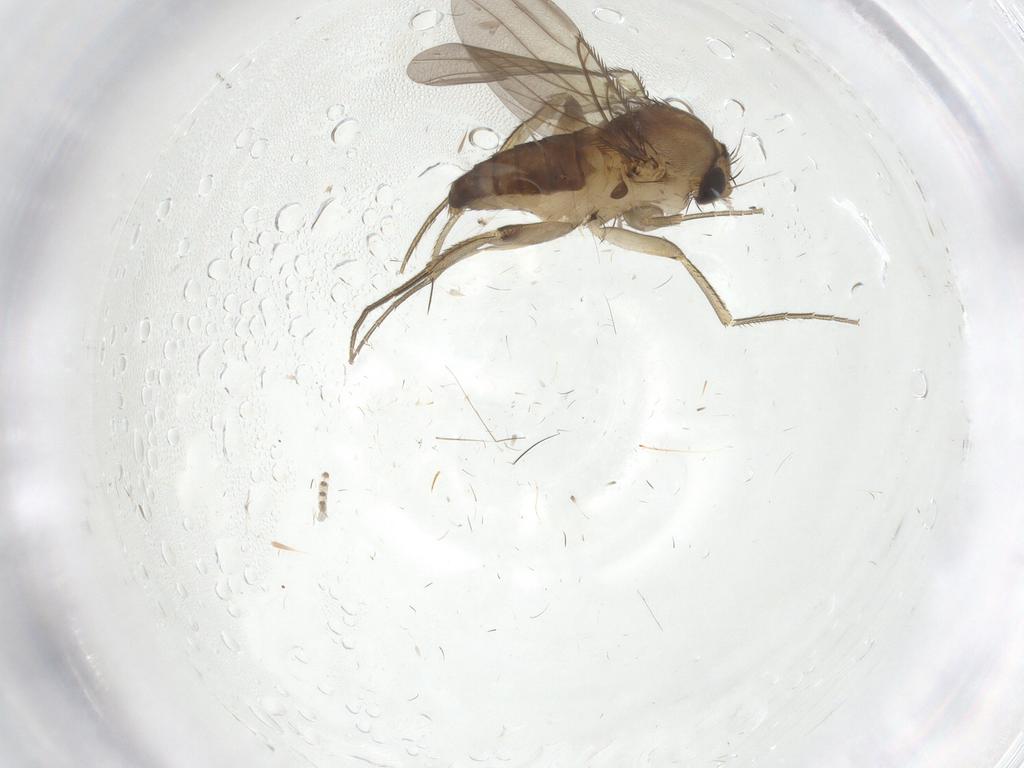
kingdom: Animalia
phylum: Arthropoda
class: Insecta
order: Diptera
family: Phoridae
